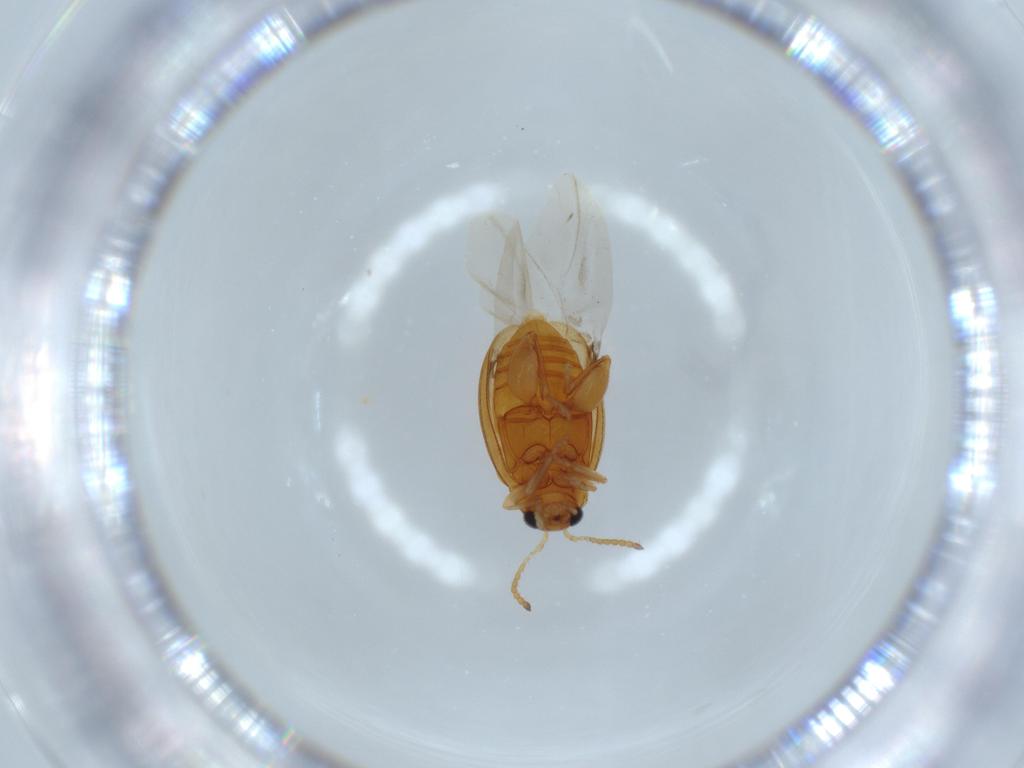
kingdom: Animalia
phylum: Arthropoda
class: Insecta
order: Coleoptera
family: Chrysomelidae
